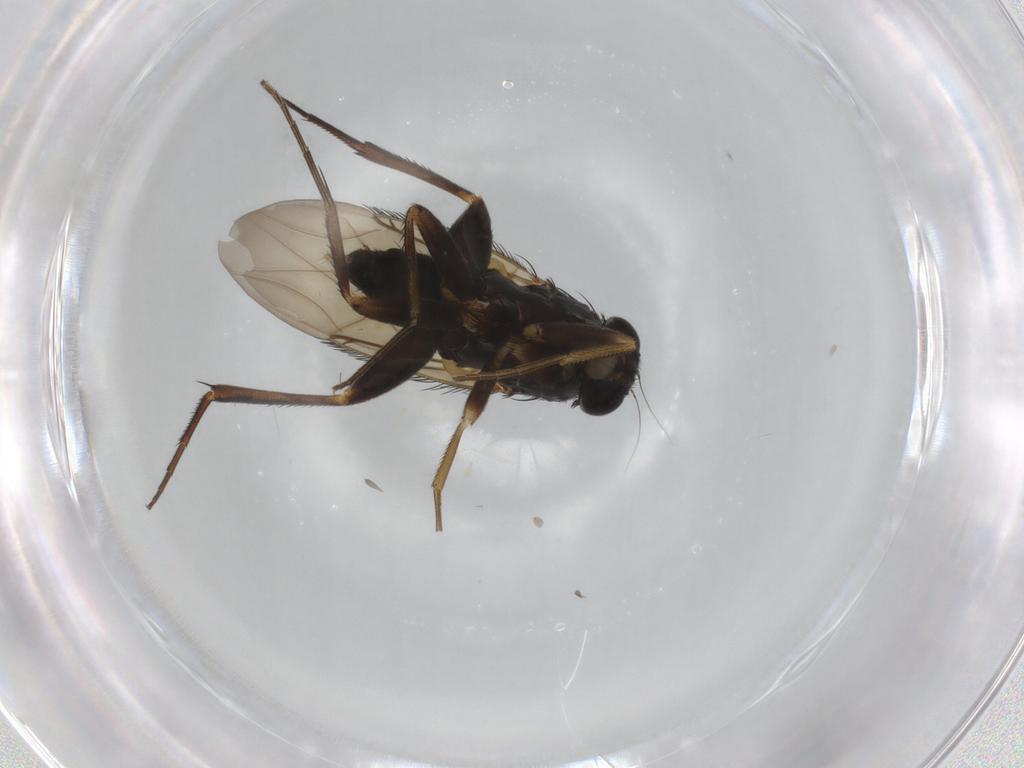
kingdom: Animalia
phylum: Arthropoda
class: Insecta
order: Diptera
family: Phoridae
